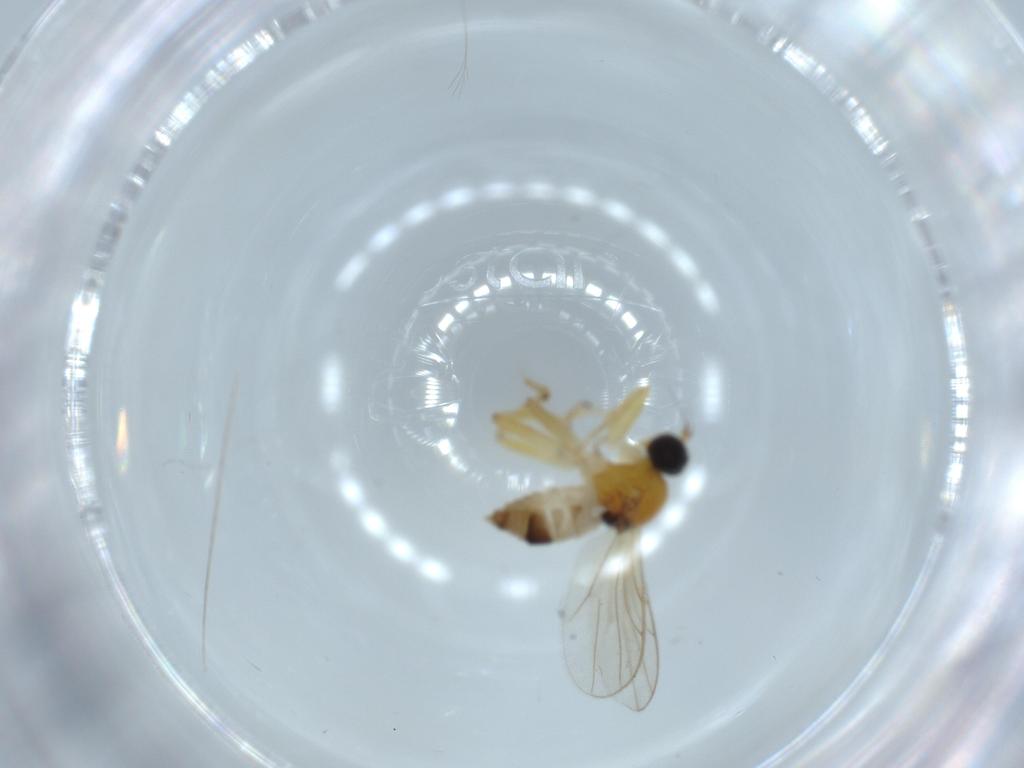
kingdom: Animalia
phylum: Arthropoda
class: Insecta
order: Diptera
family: Hybotidae
